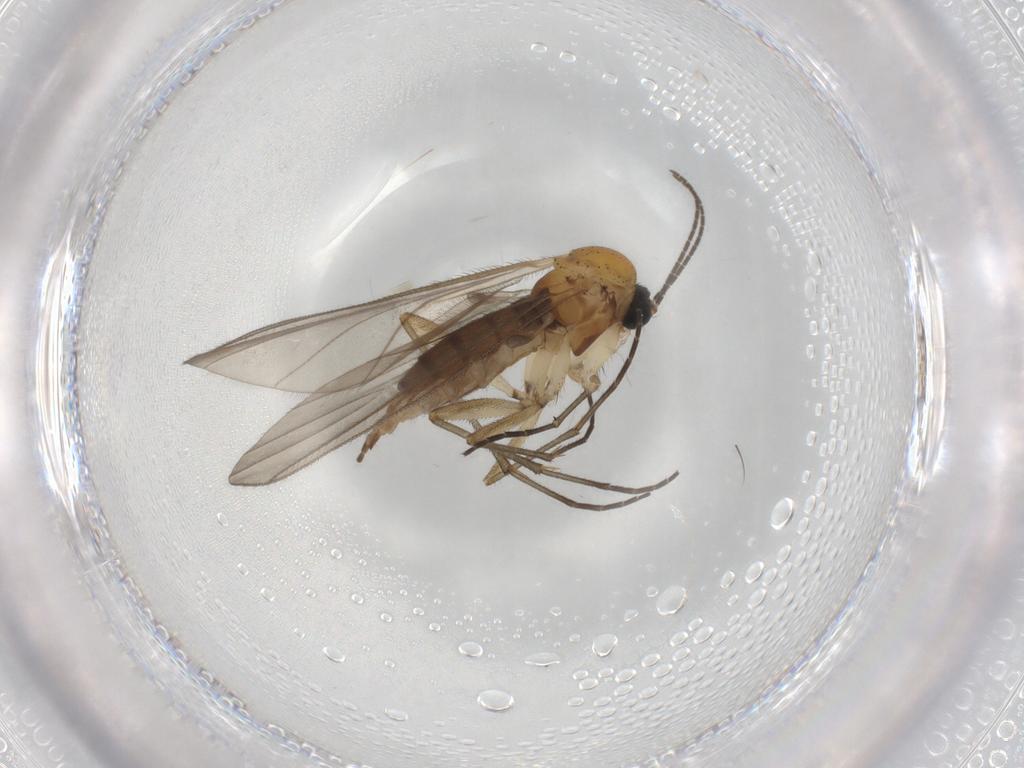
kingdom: Animalia
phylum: Arthropoda
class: Insecta
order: Diptera
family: Sciaridae
